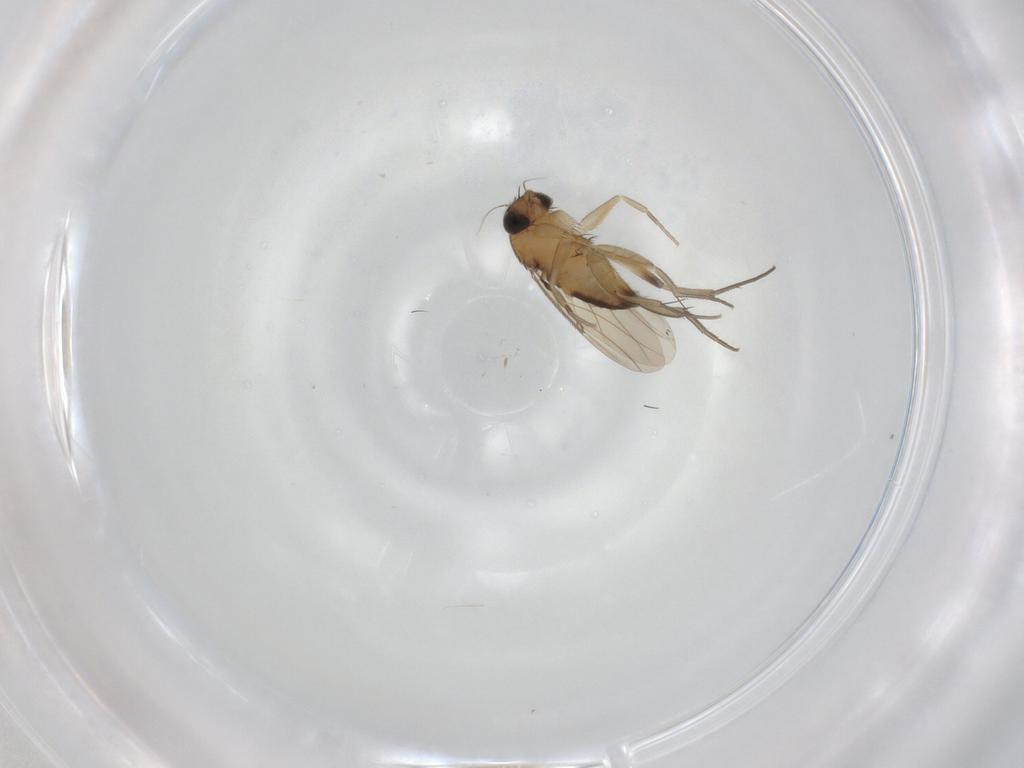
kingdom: Animalia
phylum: Arthropoda
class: Insecta
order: Diptera
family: Phoridae
